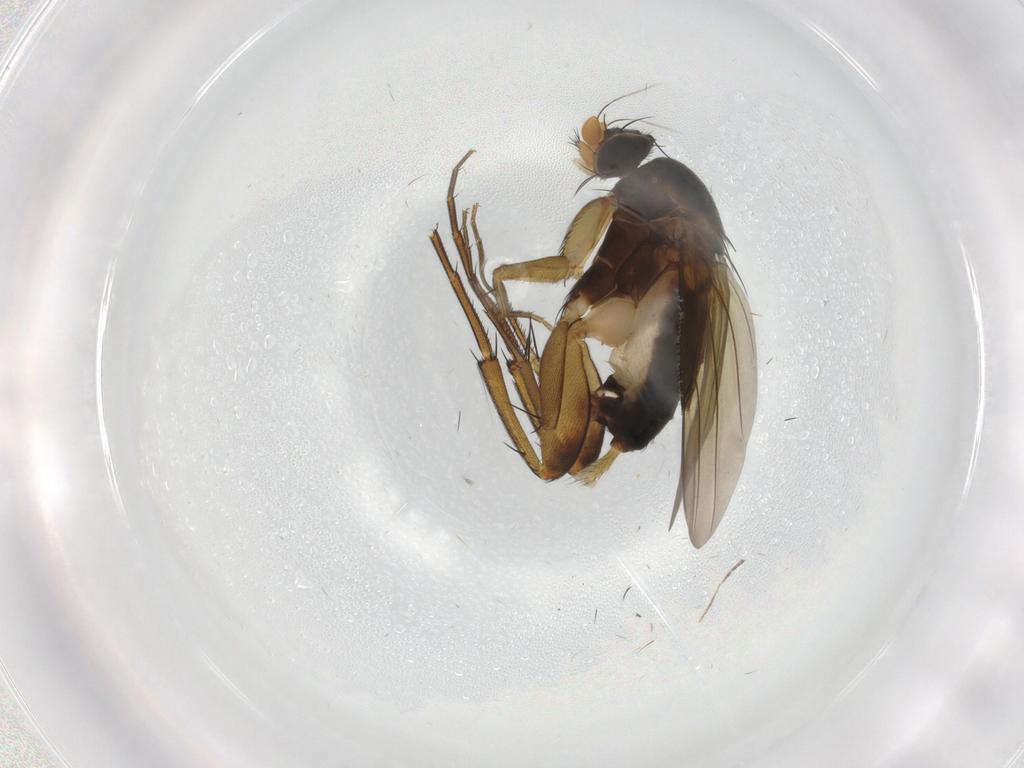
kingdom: Animalia
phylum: Arthropoda
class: Insecta
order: Diptera
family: Phoridae
